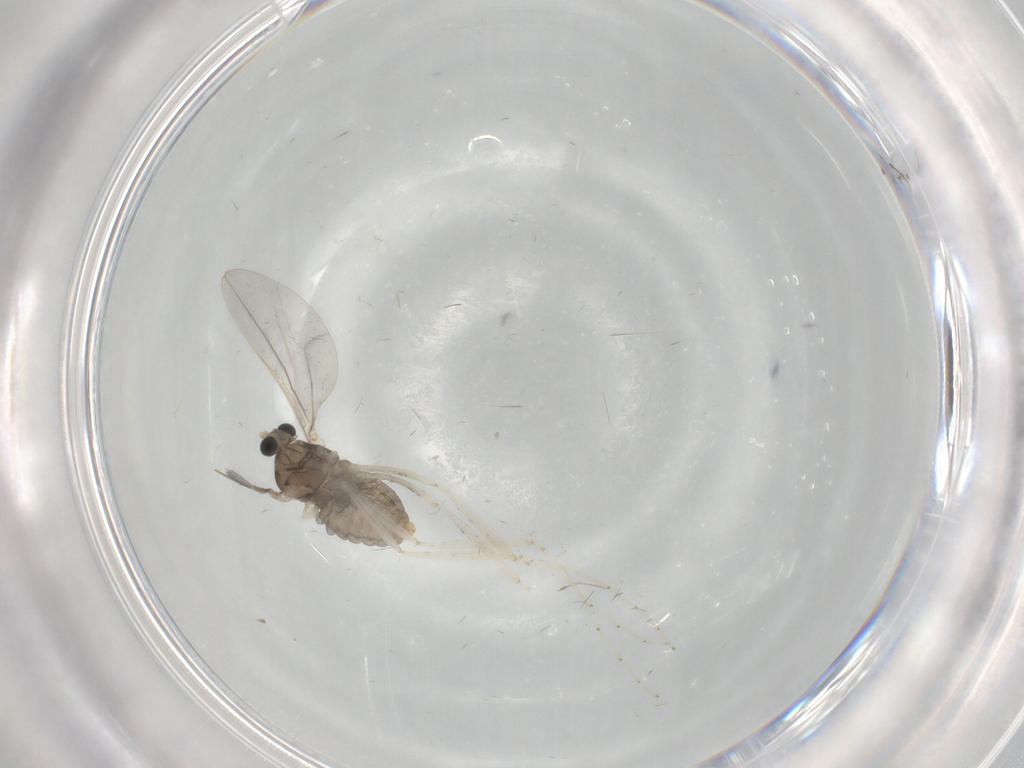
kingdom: Animalia
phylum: Arthropoda
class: Insecta
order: Diptera
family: Cecidomyiidae
